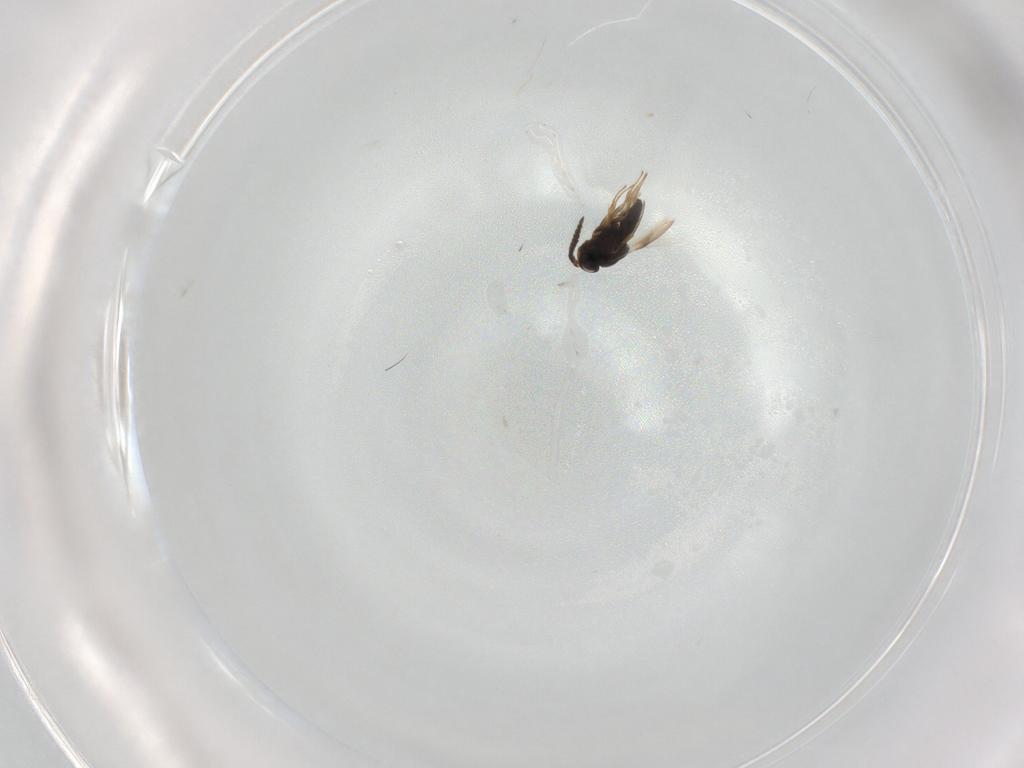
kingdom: Animalia
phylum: Arthropoda
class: Insecta
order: Hymenoptera
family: Scelionidae
